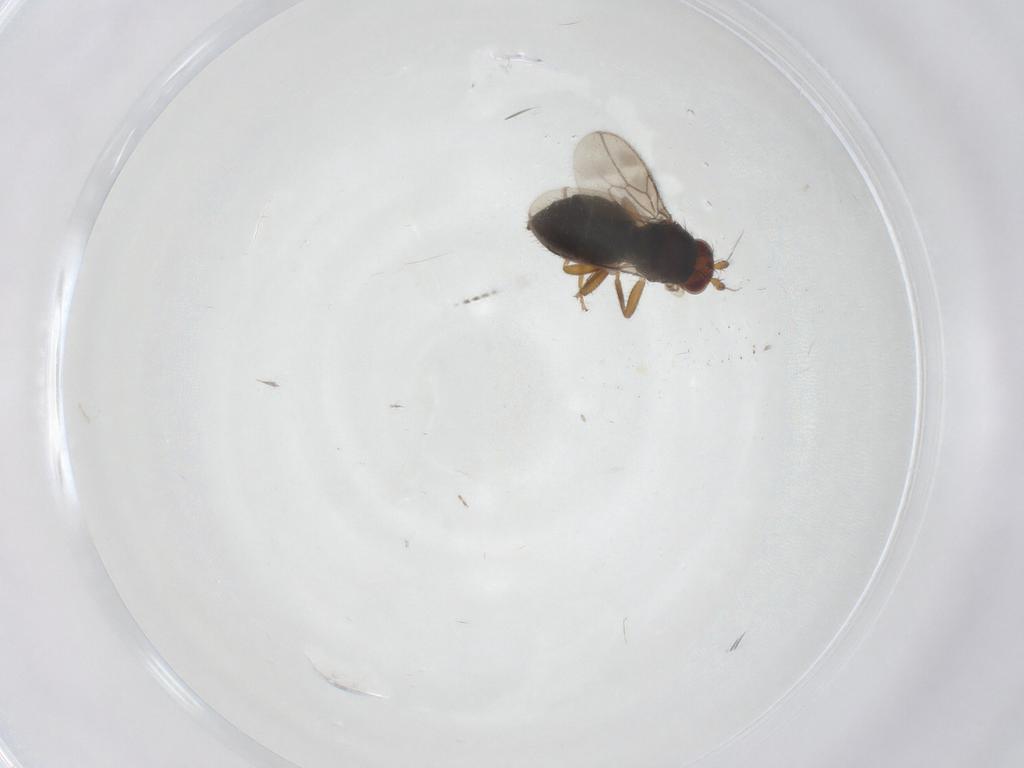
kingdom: Animalia
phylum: Arthropoda
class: Insecta
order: Diptera
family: Sphaeroceridae
